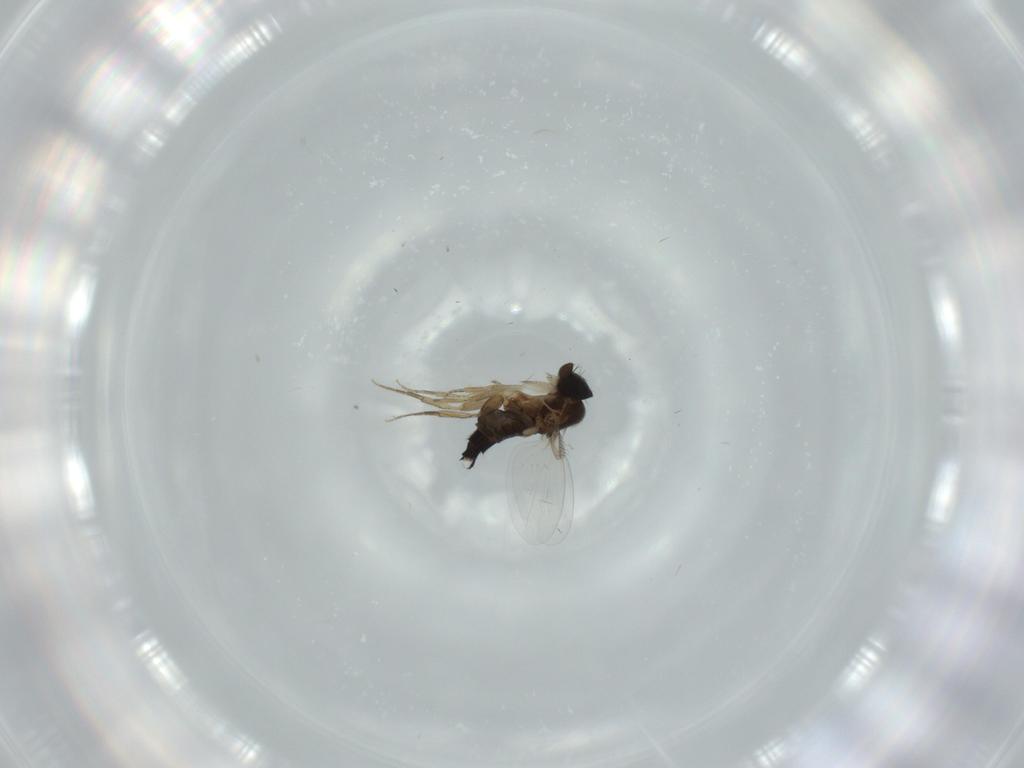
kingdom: Animalia
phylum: Arthropoda
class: Insecta
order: Diptera
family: Phoridae
